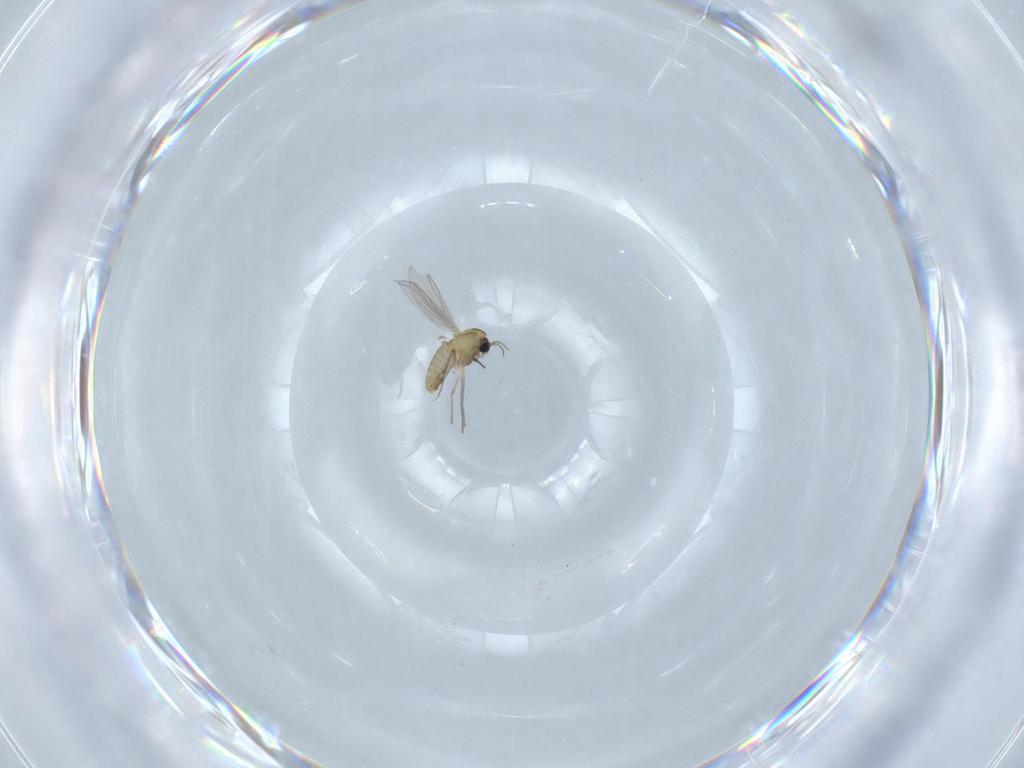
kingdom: Animalia
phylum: Arthropoda
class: Insecta
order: Diptera
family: Chironomidae
